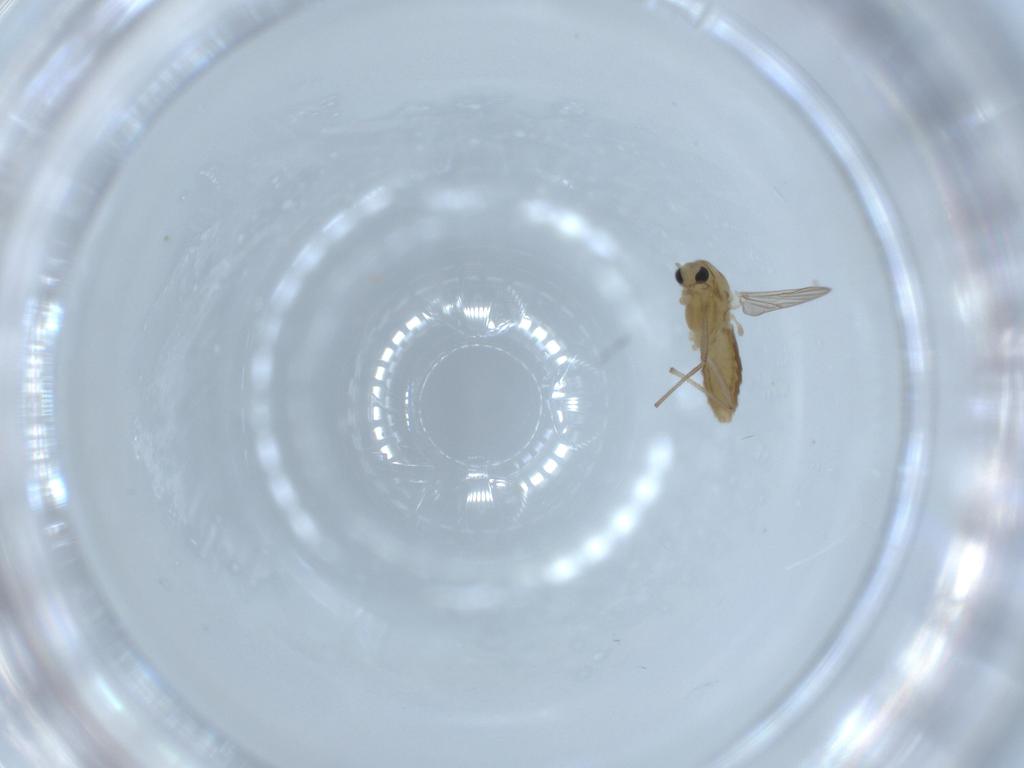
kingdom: Animalia
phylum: Arthropoda
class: Insecta
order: Diptera
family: Chironomidae
